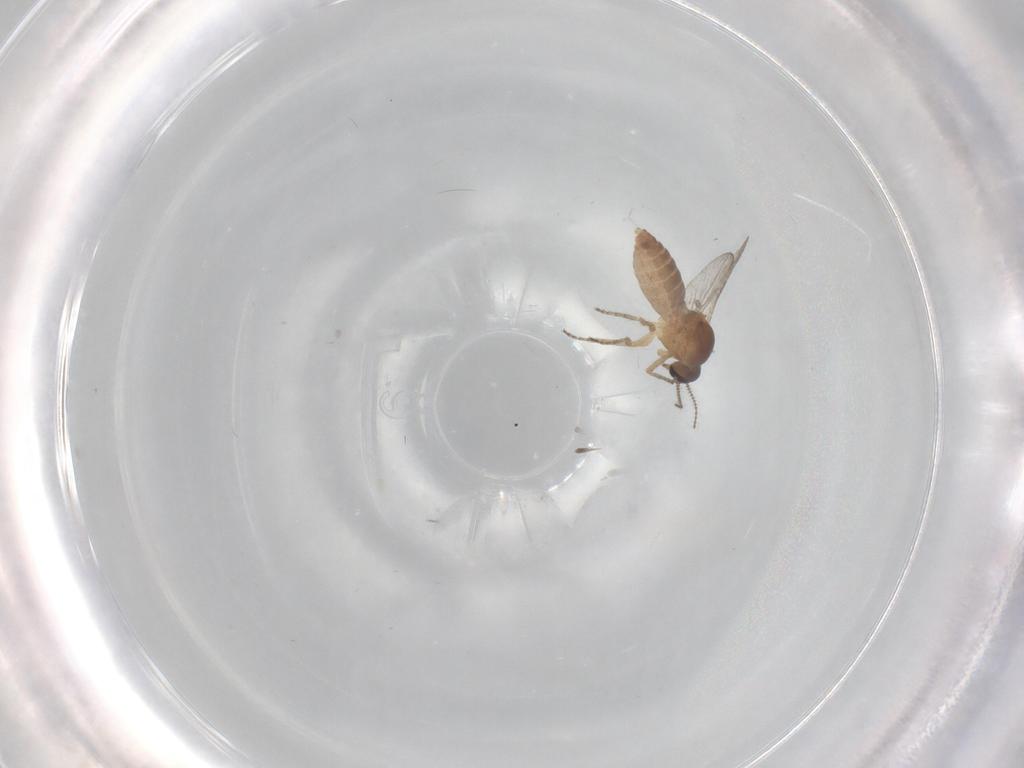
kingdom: Animalia
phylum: Arthropoda
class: Insecta
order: Diptera
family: Ceratopogonidae
